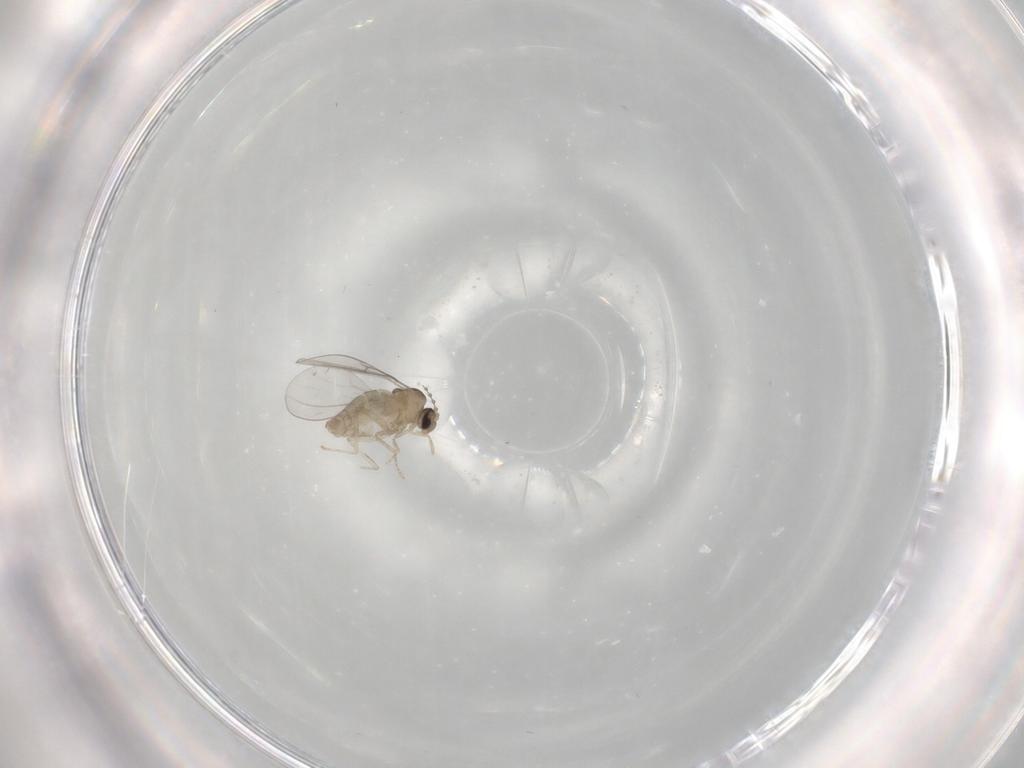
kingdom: Animalia
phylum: Arthropoda
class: Insecta
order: Diptera
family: Cecidomyiidae
